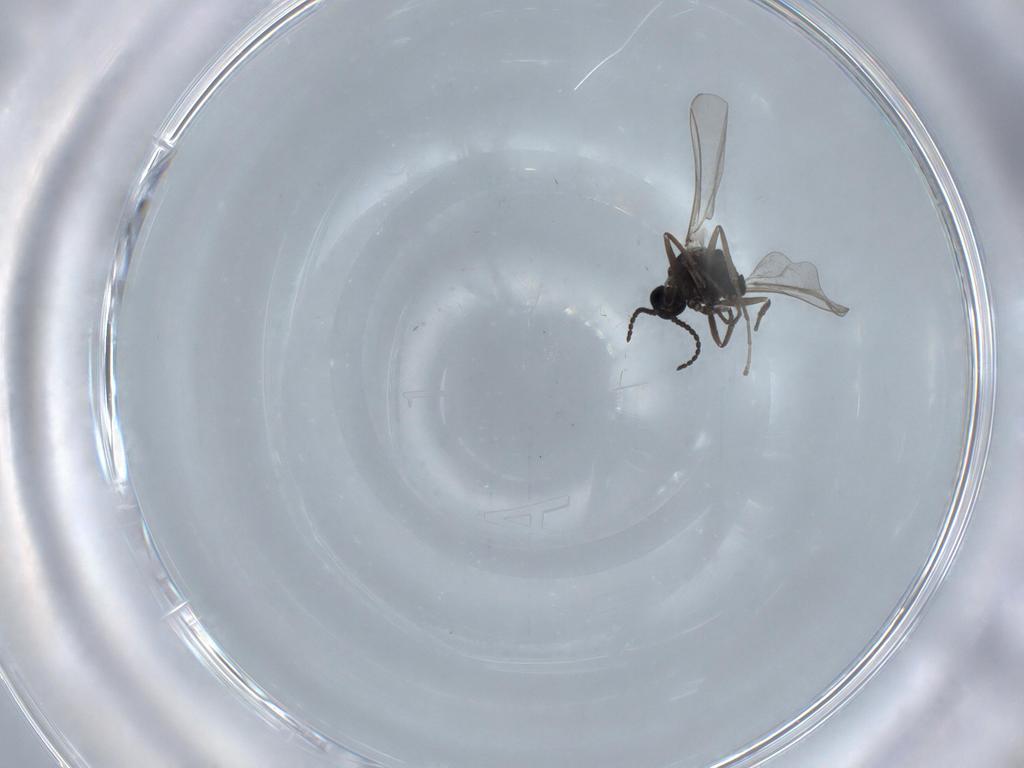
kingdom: Animalia
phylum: Arthropoda
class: Insecta
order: Diptera
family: Cecidomyiidae
